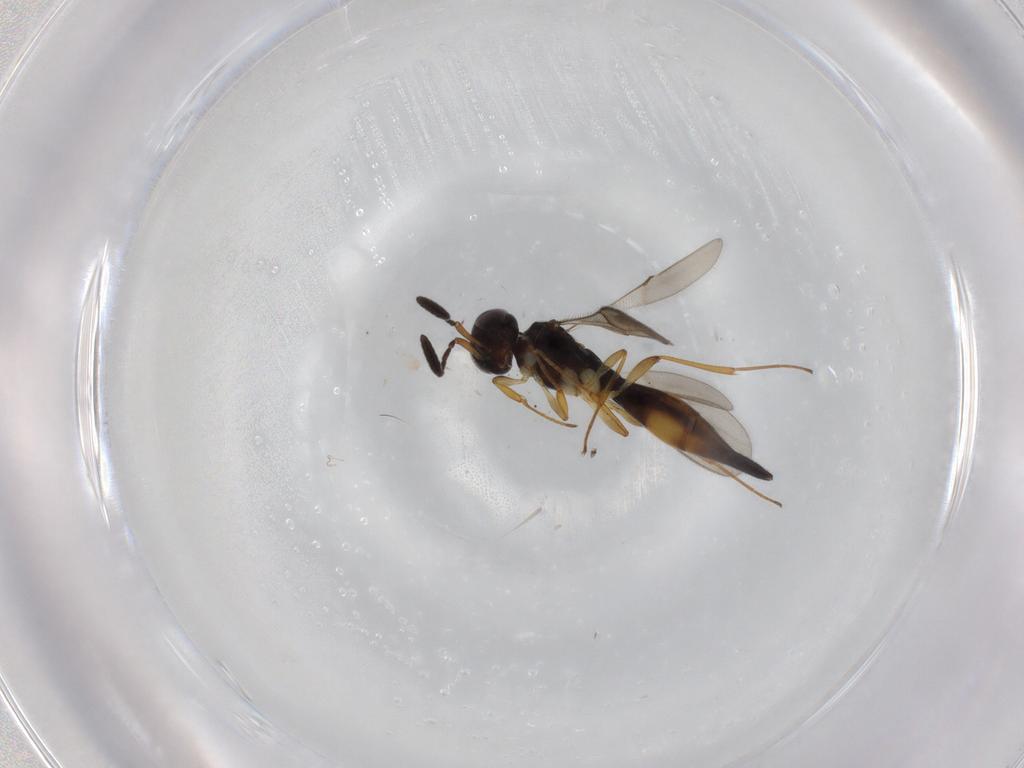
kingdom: Animalia
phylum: Arthropoda
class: Insecta
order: Hymenoptera
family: Scelionidae
